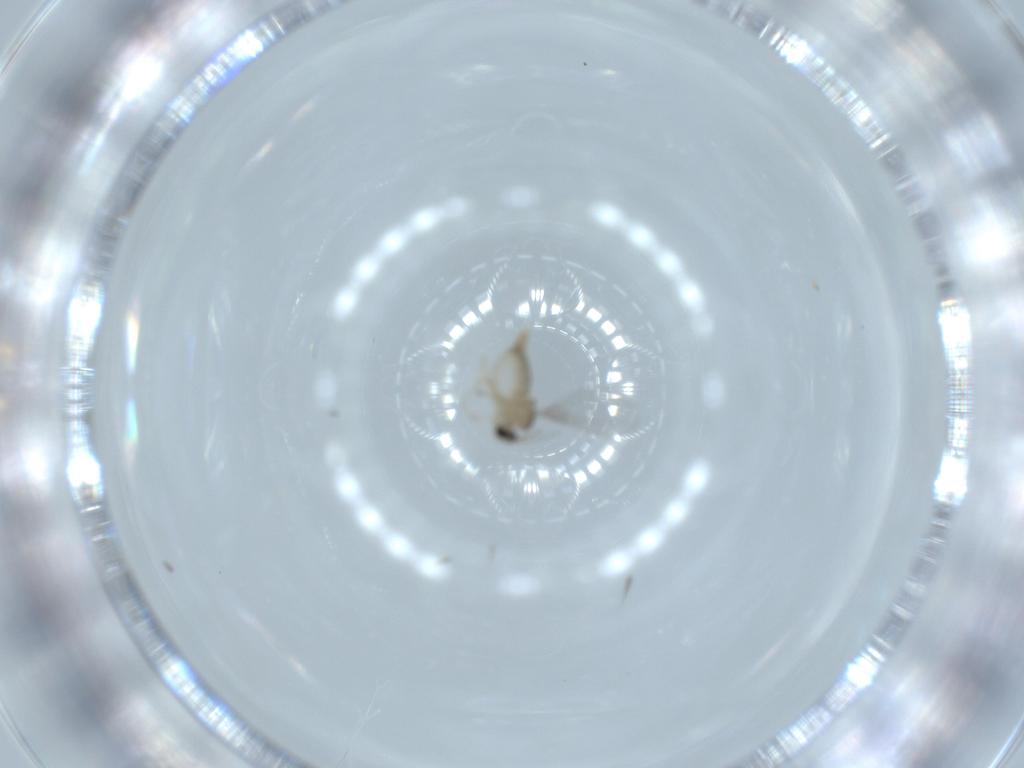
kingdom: Animalia
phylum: Arthropoda
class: Insecta
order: Diptera
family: Cecidomyiidae
